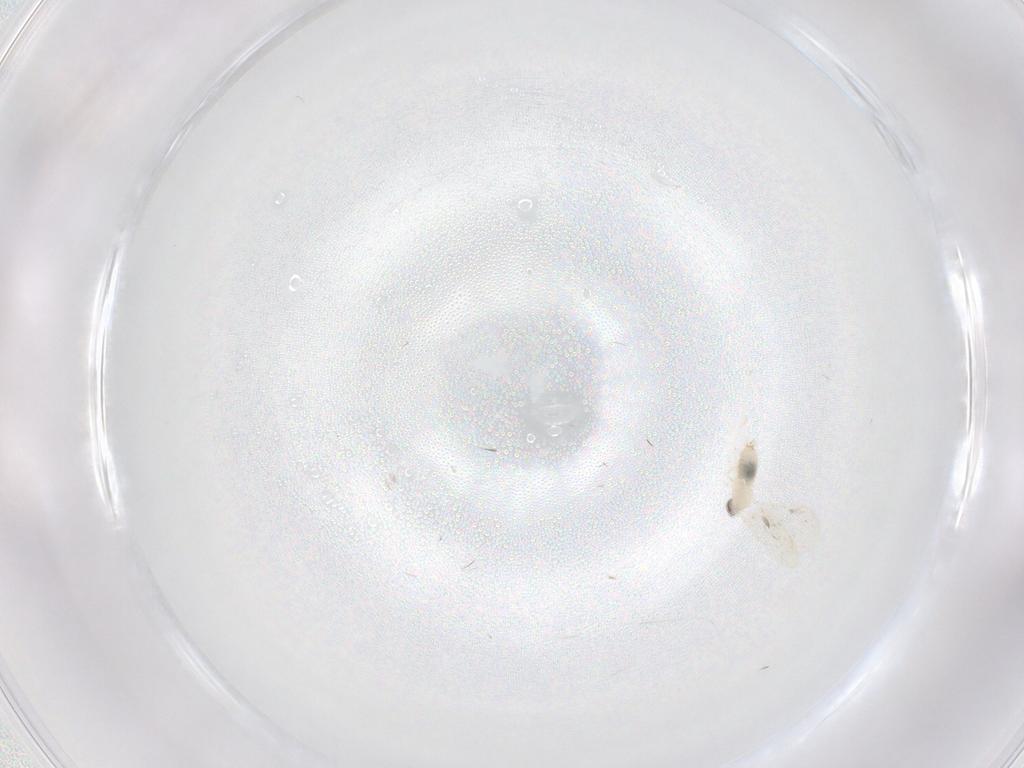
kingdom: Animalia
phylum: Arthropoda
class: Insecta
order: Diptera
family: Cecidomyiidae
